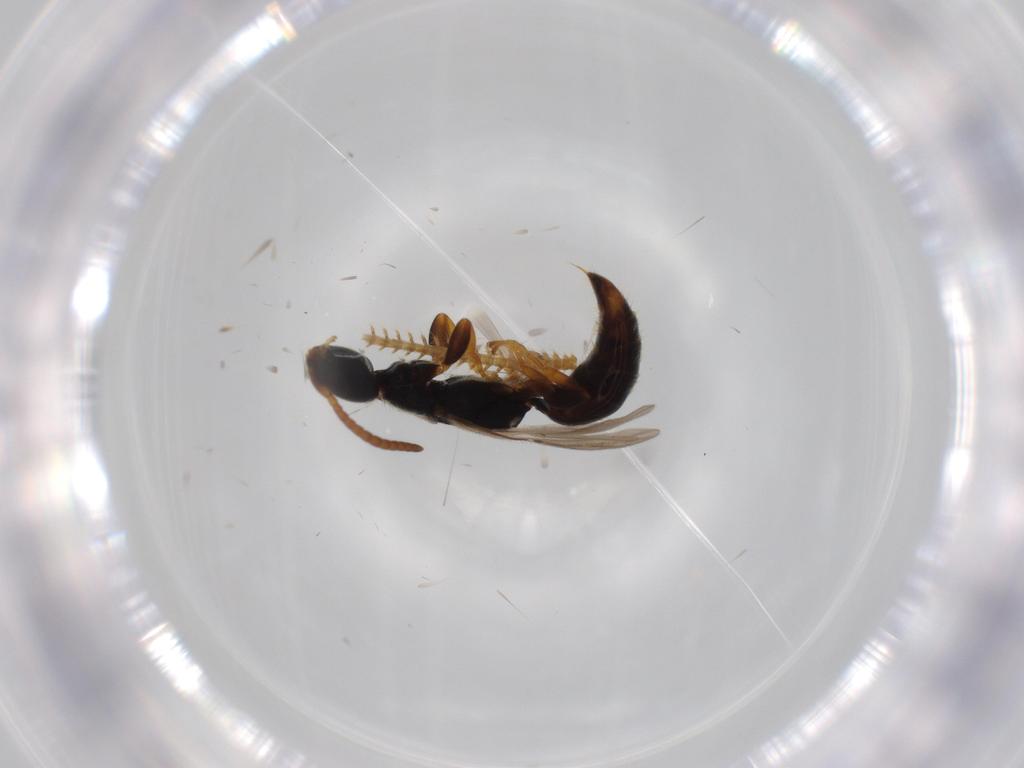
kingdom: Animalia
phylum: Arthropoda
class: Insecta
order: Hymenoptera
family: Bethylidae
